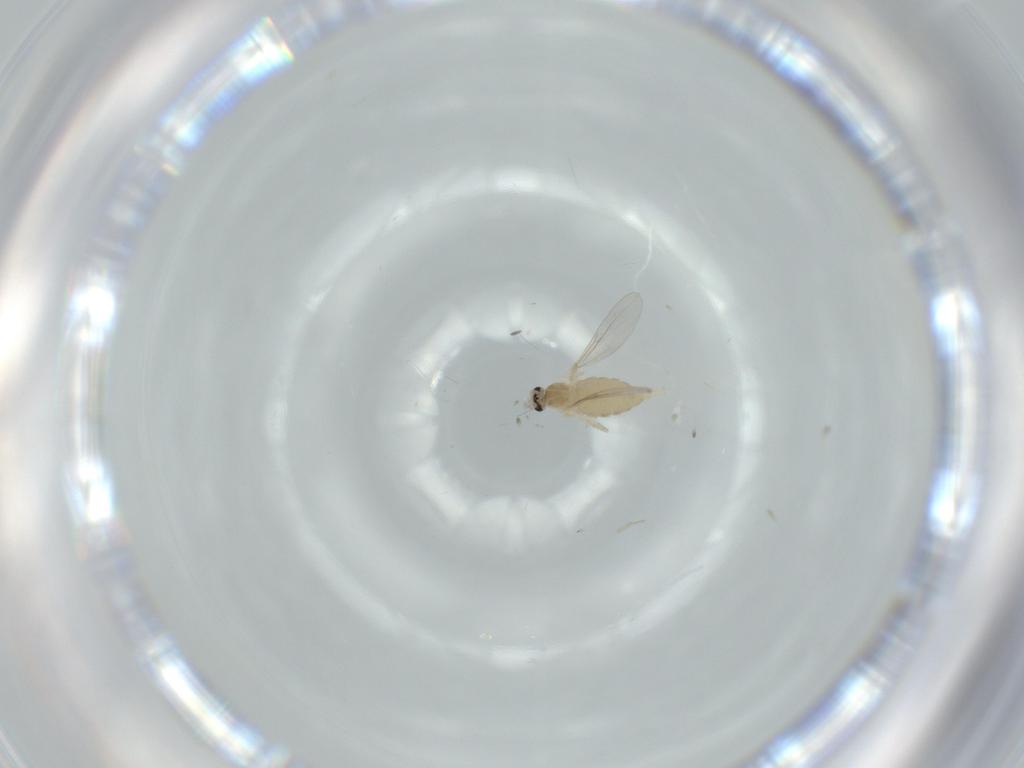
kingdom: Animalia
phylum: Arthropoda
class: Insecta
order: Diptera
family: Cecidomyiidae
